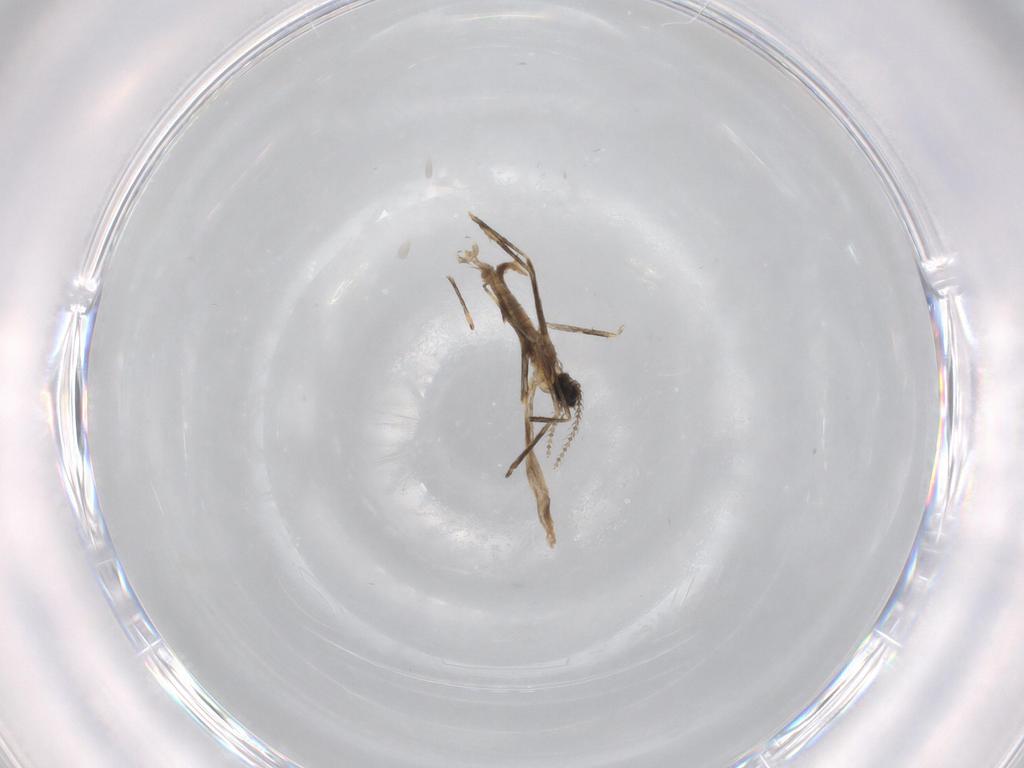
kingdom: Animalia
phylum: Arthropoda
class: Insecta
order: Diptera
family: Cecidomyiidae
